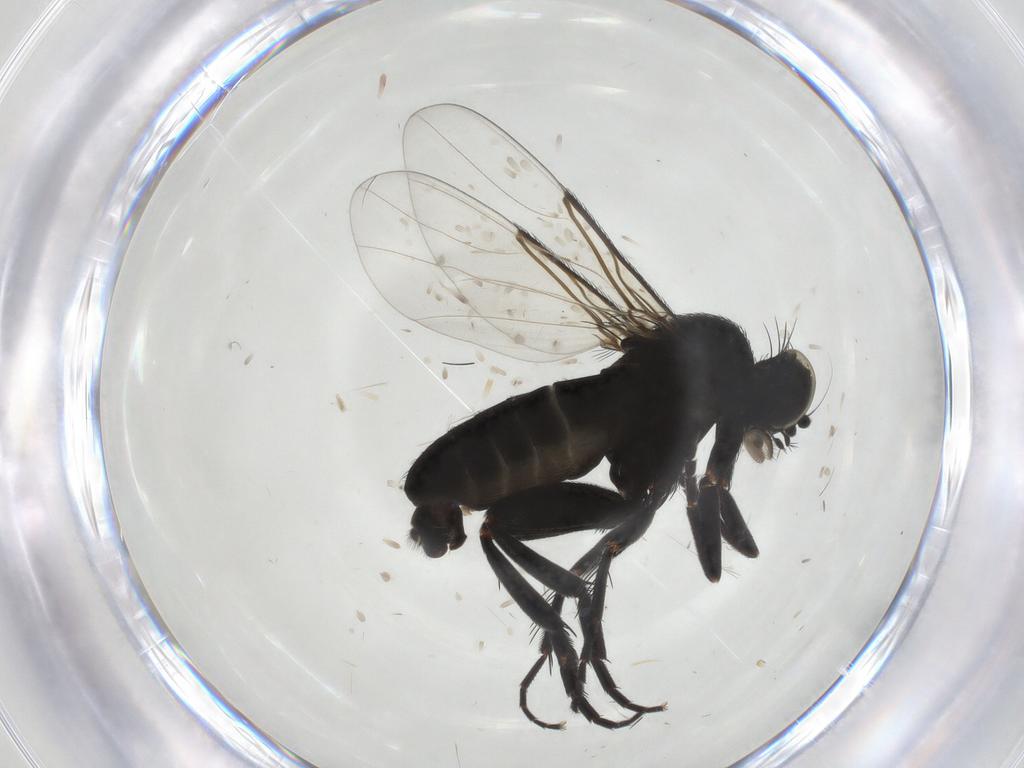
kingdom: Animalia
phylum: Arthropoda
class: Insecta
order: Diptera
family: Phoridae
